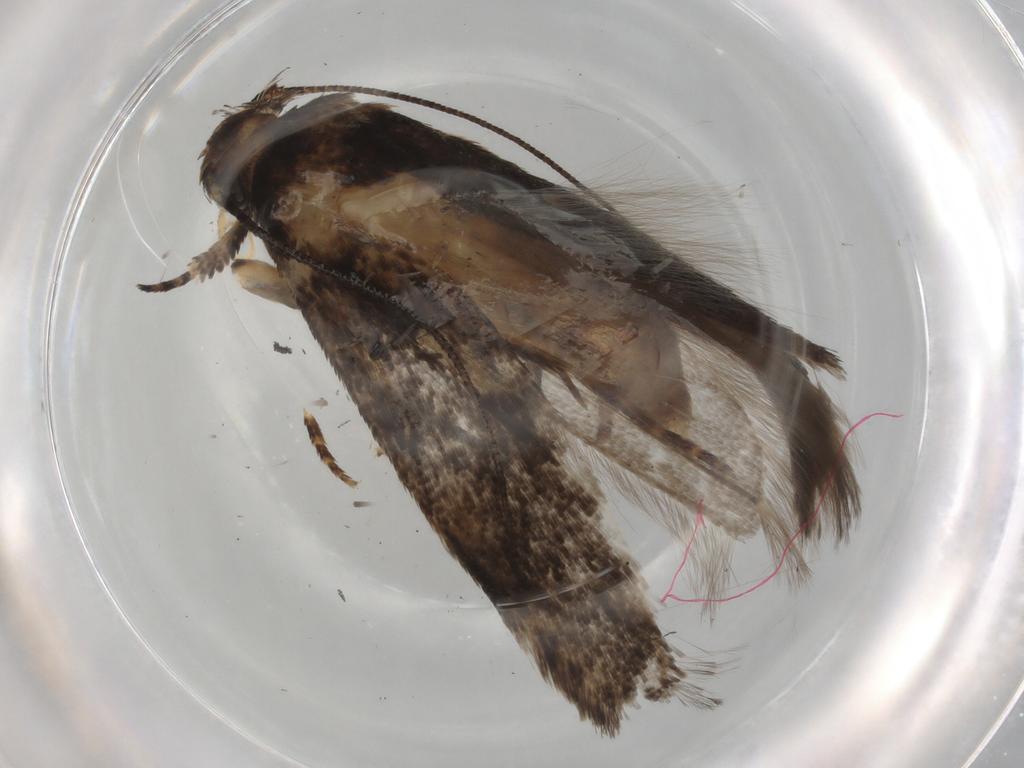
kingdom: Animalia
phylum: Arthropoda
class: Insecta
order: Lepidoptera
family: Gelechiidae
